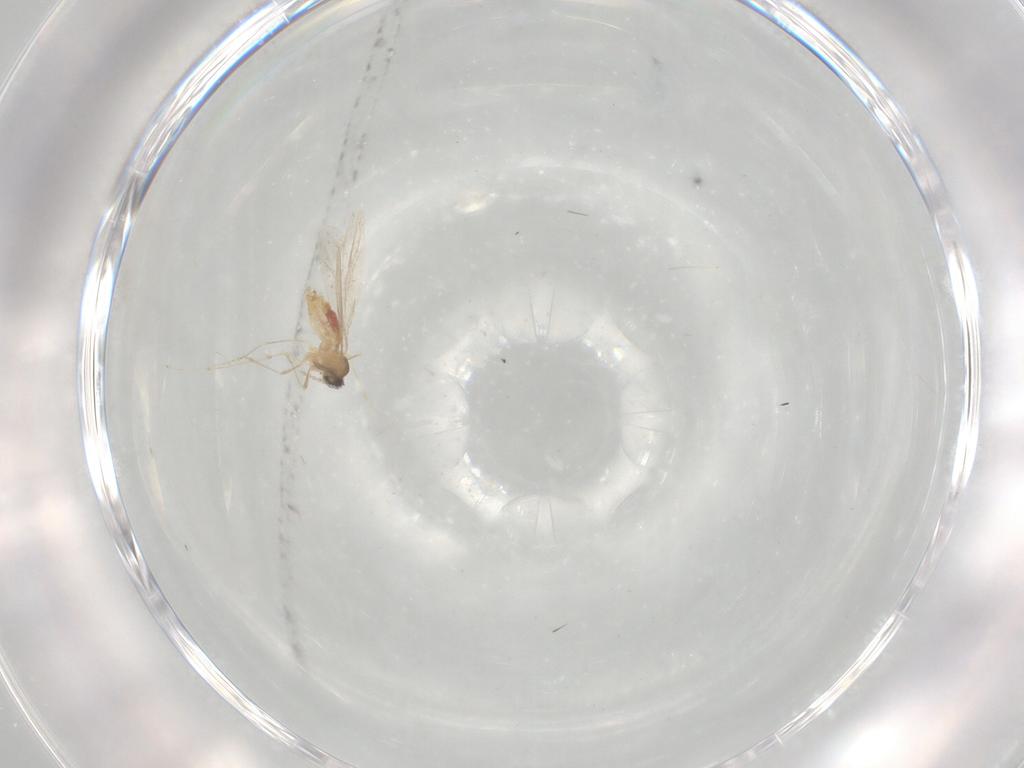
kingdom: Animalia
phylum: Arthropoda
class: Insecta
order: Diptera
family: Cecidomyiidae
